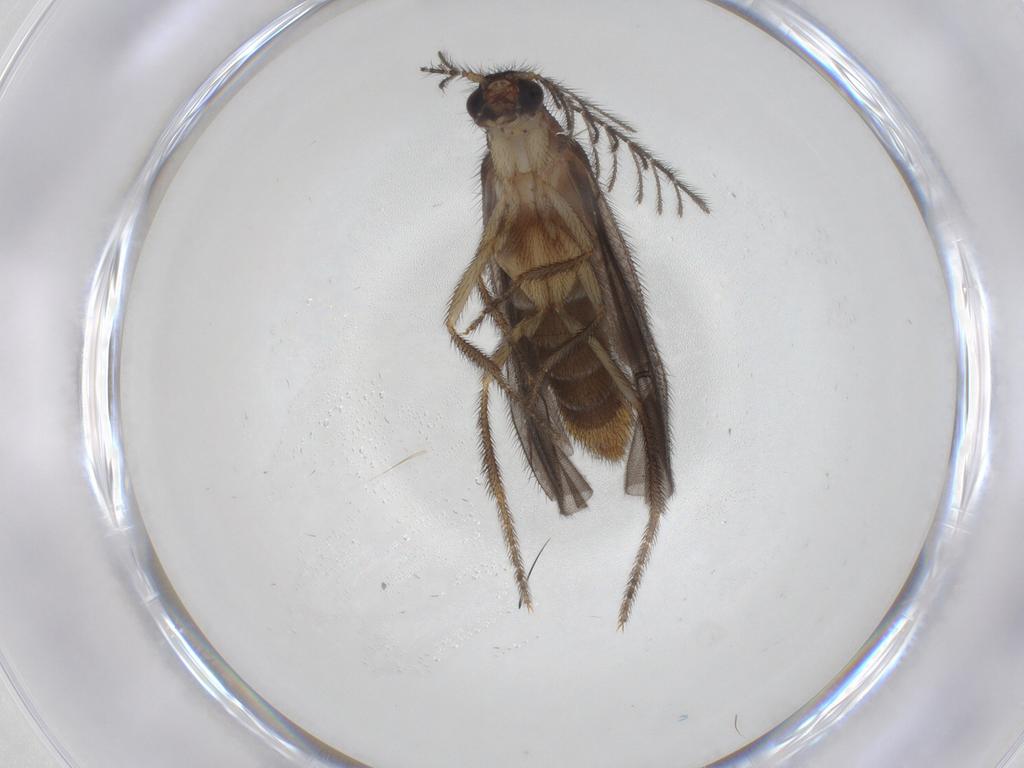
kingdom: Animalia
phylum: Arthropoda
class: Insecta
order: Coleoptera
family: Phengodidae
